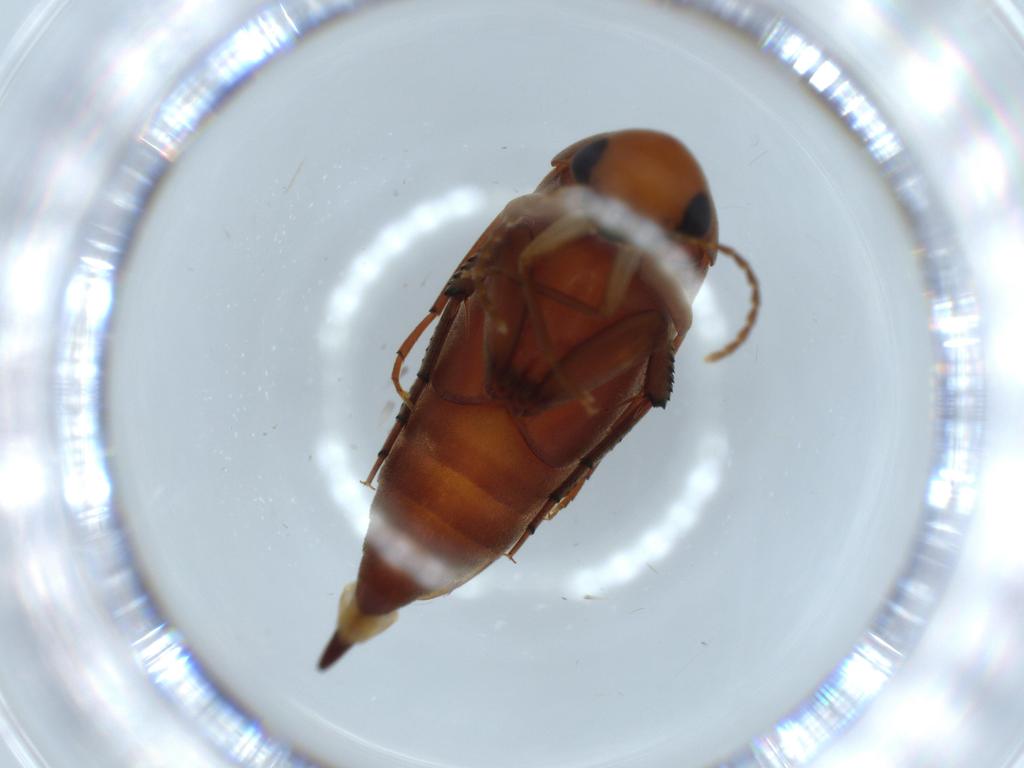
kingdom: Animalia
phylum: Arthropoda
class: Insecta
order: Coleoptera
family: Mordellidae
